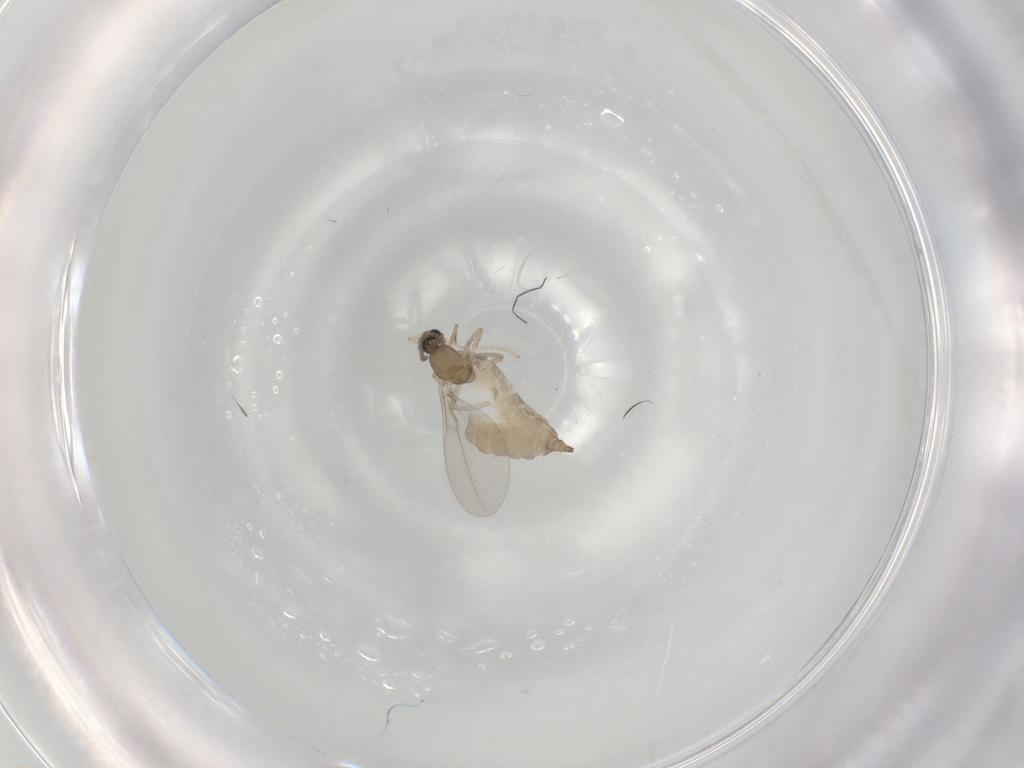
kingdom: Animalia
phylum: Arthropoda
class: Insecta
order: Diptera
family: Cecidomyiidae
